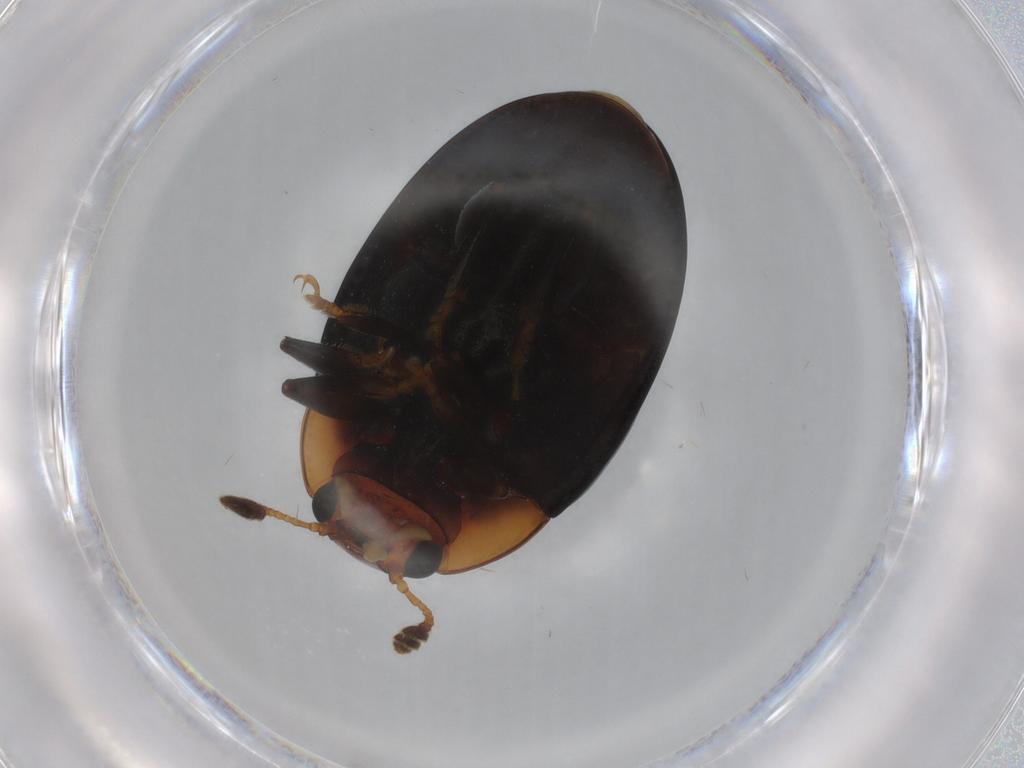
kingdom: Animalia
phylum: Arthropoda
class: Insecta
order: Coleoptera
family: Erotylidae
